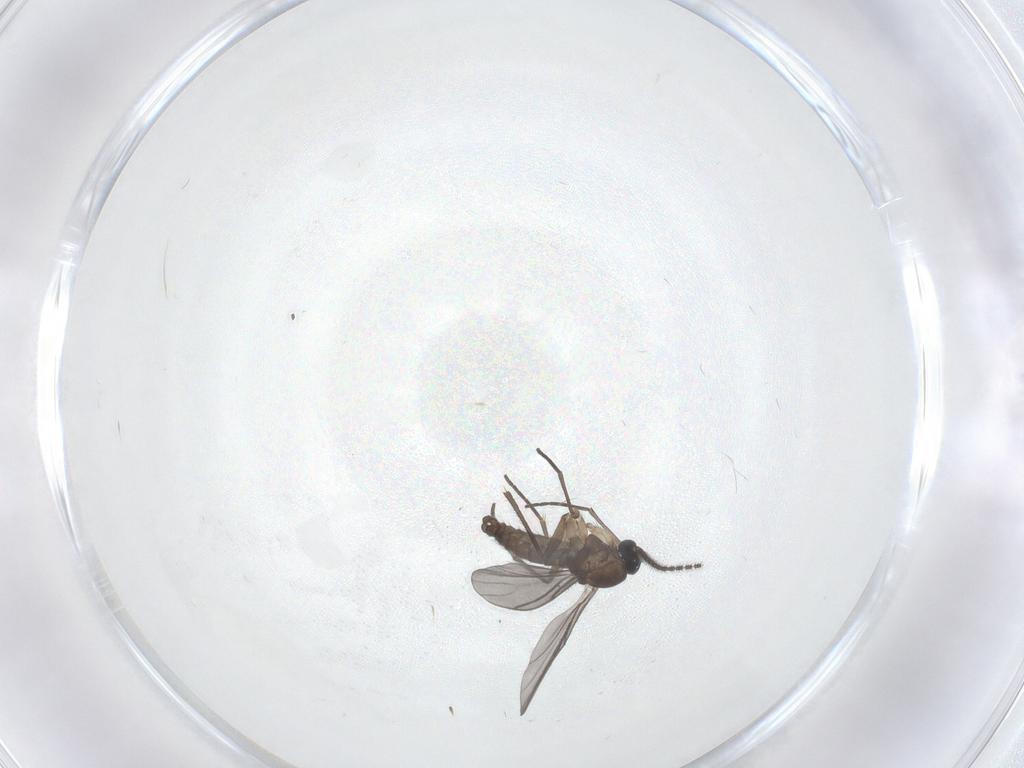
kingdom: Animalia
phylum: Arthropoda
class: Insecta
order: Diptera
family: Sciaridae
